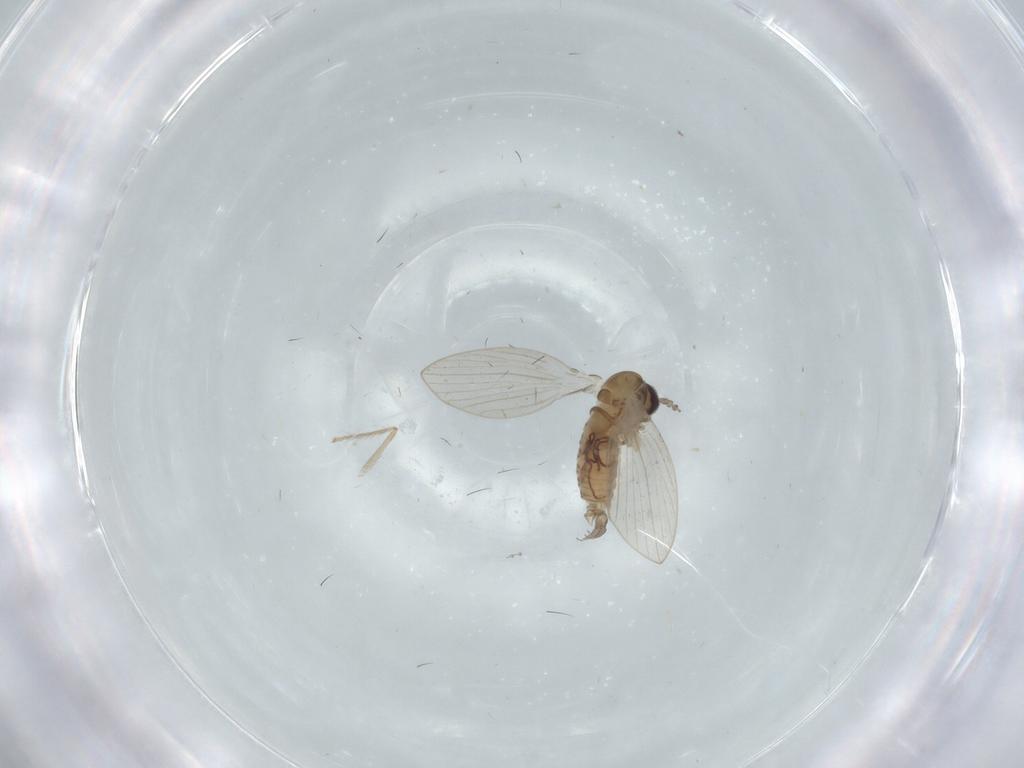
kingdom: Animalia
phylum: Arthropoda
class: Insecta
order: Diptera
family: Psychodidae
